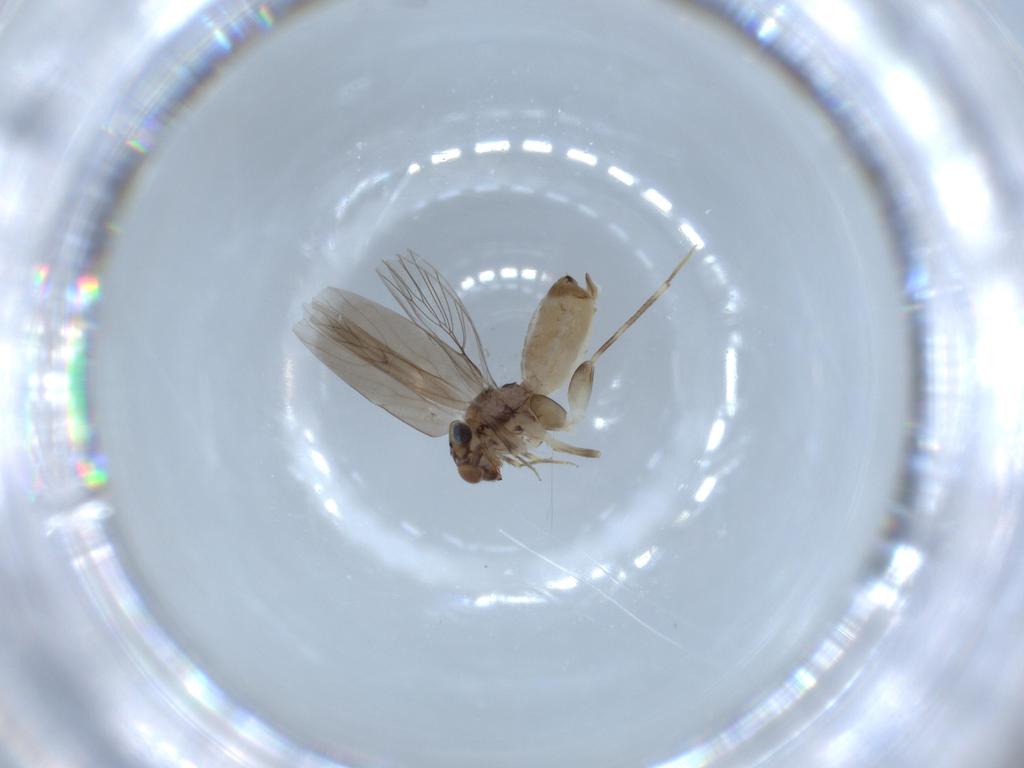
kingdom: Animalia
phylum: Arthropoda
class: Insecta
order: Psocodea
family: Lepidopsocidae
